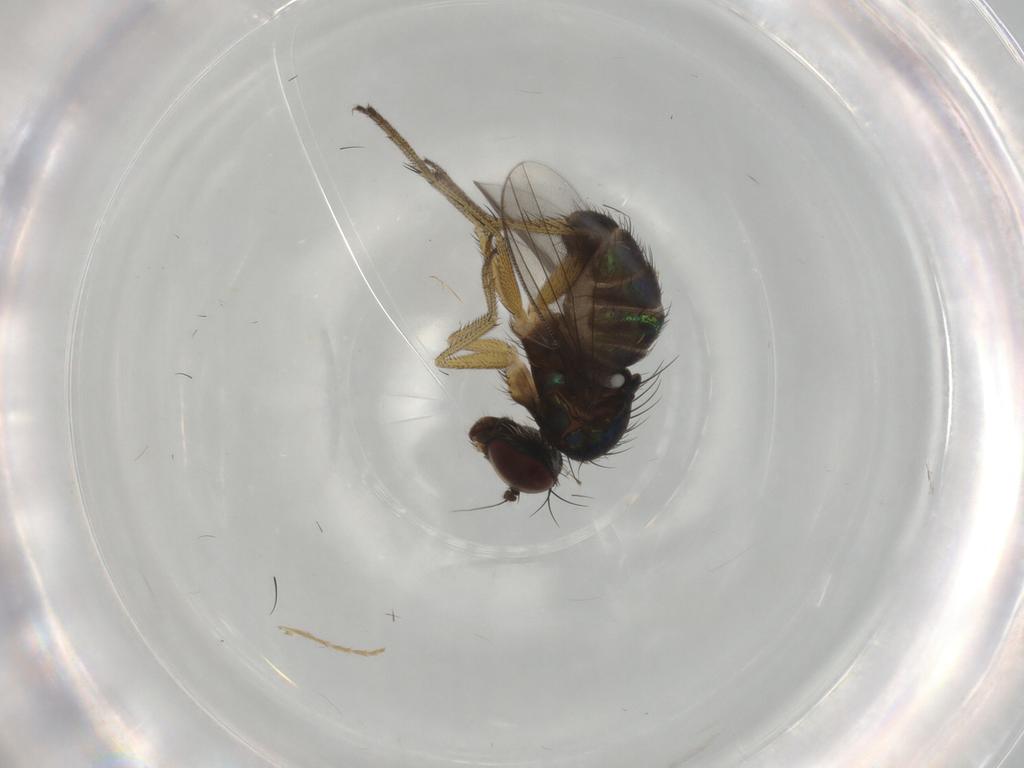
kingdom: Animalia
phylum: Arthropoda
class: Insecta
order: Diptera
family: Dolichopodidae
